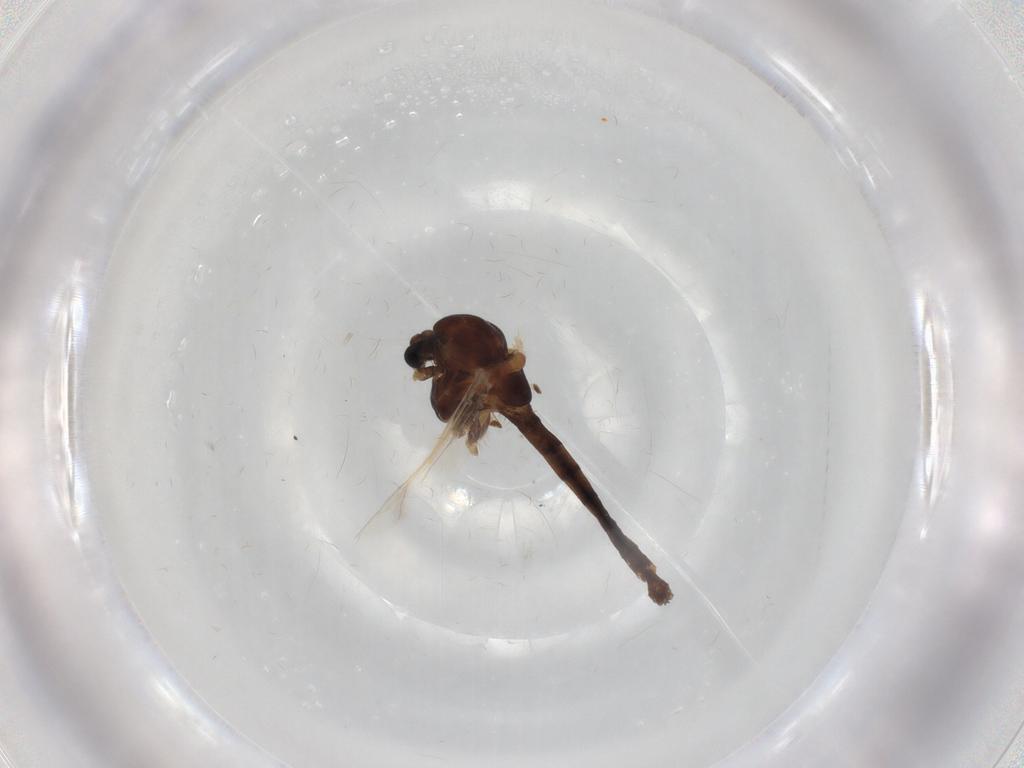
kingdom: Animalia
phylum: Arthropoda
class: Insecta
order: Diptera
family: Chironomidae
